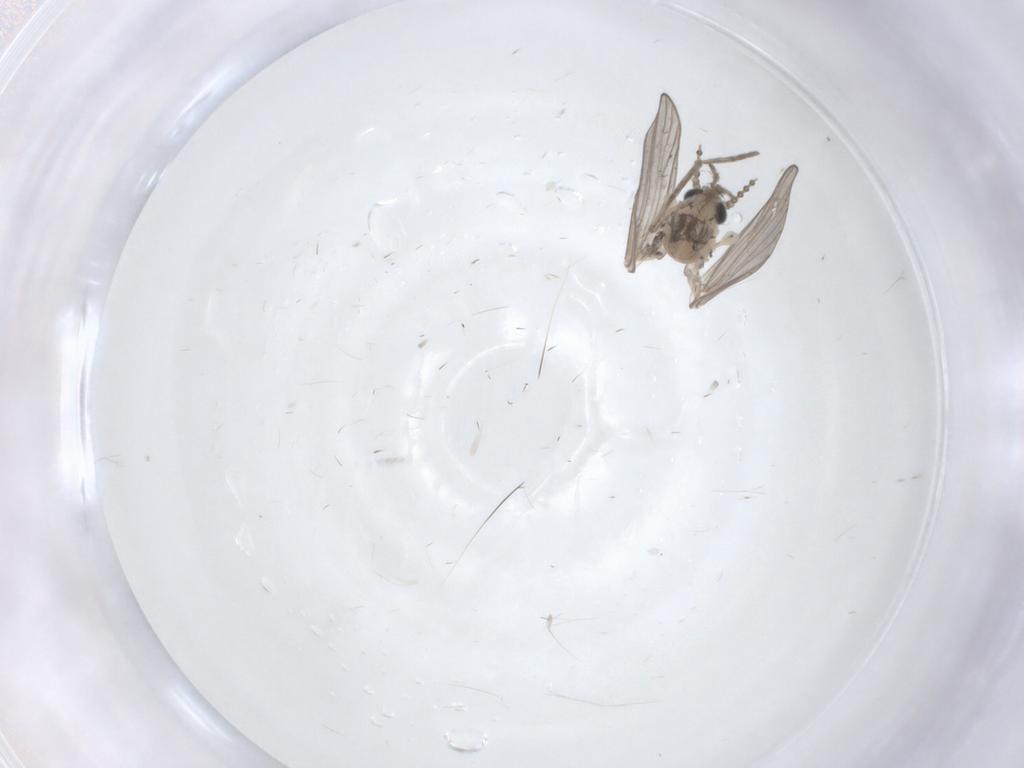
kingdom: Animalia
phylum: Arthropoda
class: Insecta
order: Diptera
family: Psychodidae
